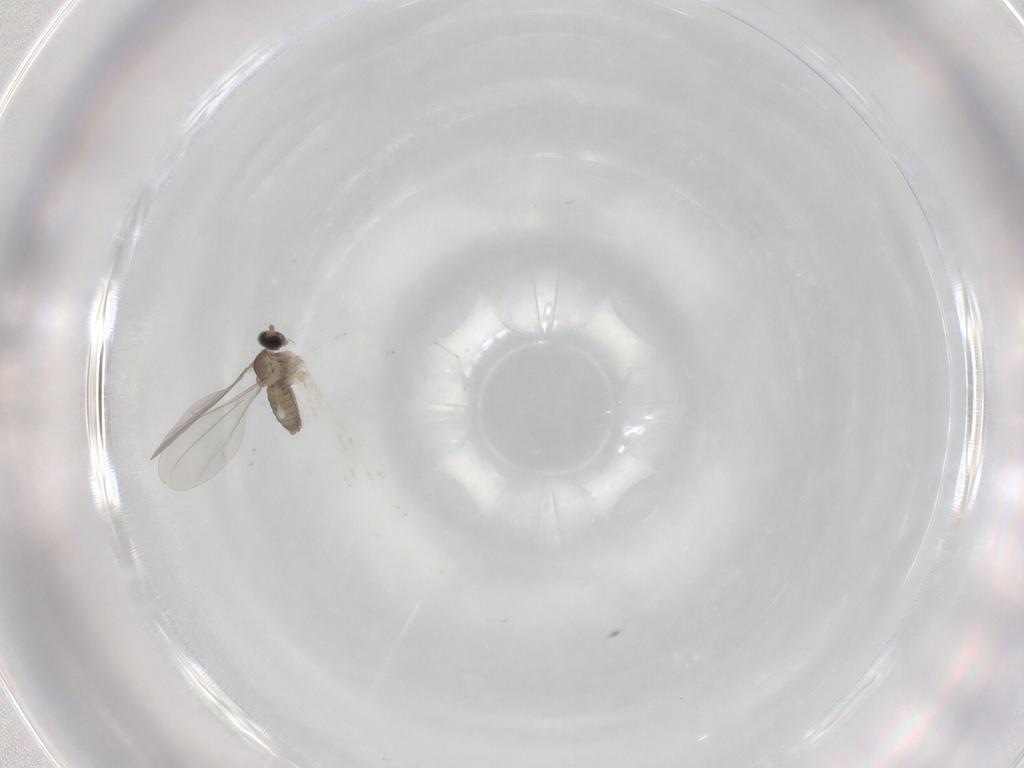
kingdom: Animalia
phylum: Arthropoda
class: Insecta
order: Diptera
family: Cecidomyiidae
